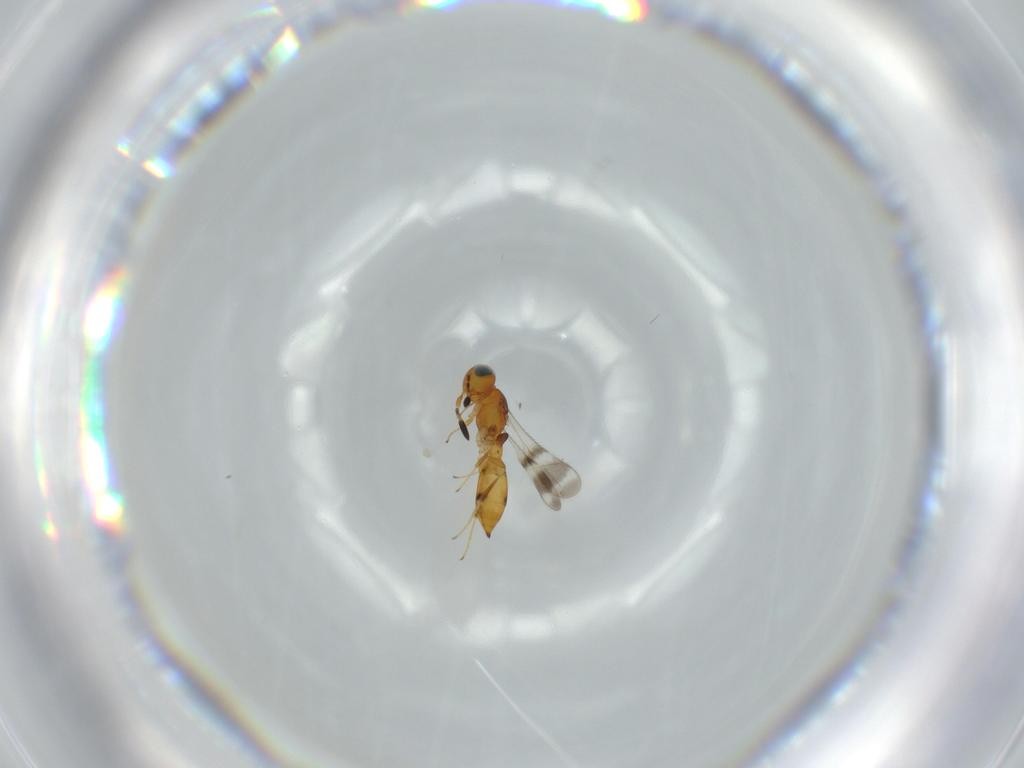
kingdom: Animalia
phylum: Arthropoda
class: Insecta
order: Hymenoptera
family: Scelionidae
